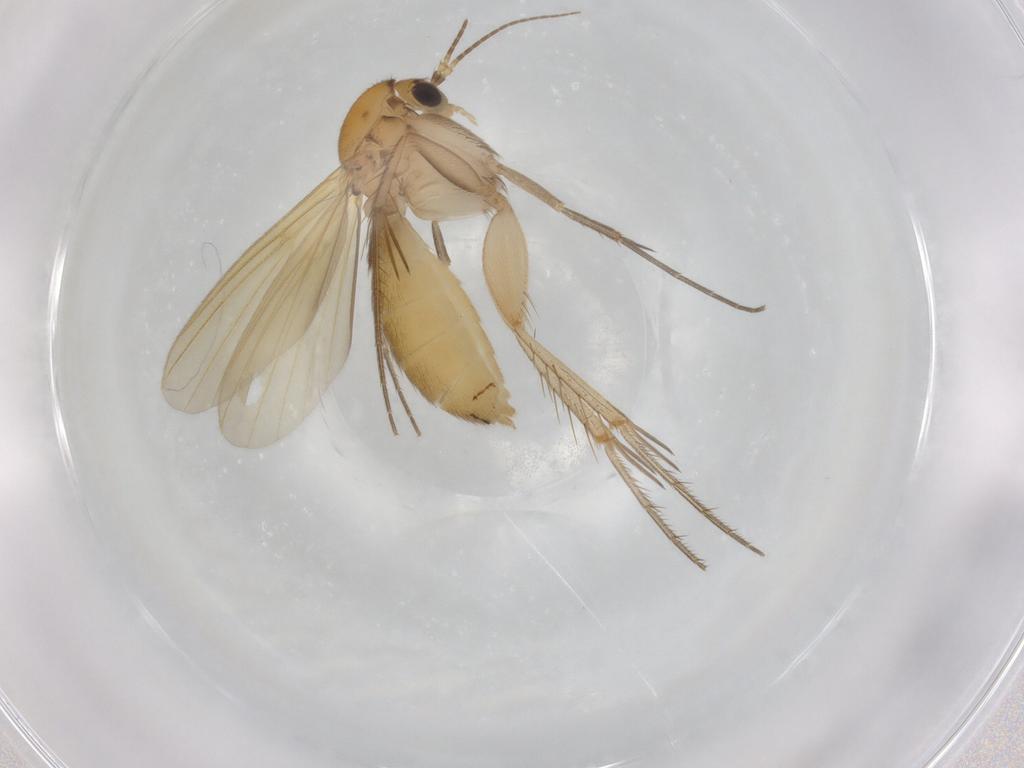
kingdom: Animalia
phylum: Arthropoda
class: Insecta
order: Diptera
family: Mycetophilidae
